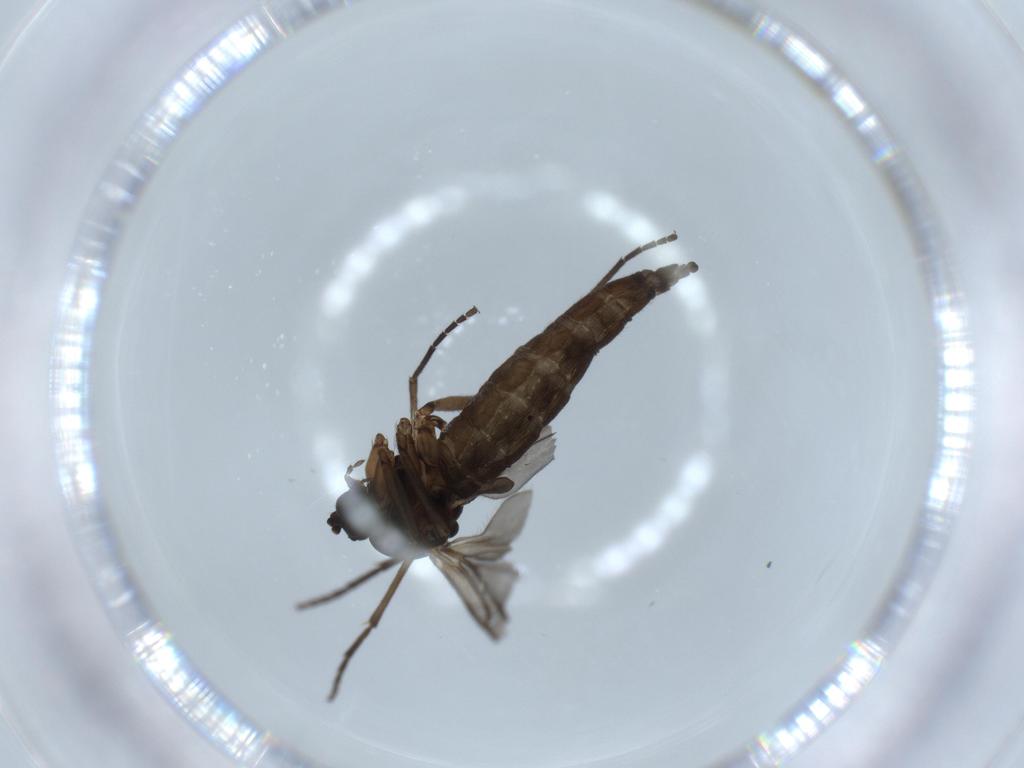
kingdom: Animalia
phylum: Arthropoda
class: Insecta
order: Diptera
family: Sciaridae
